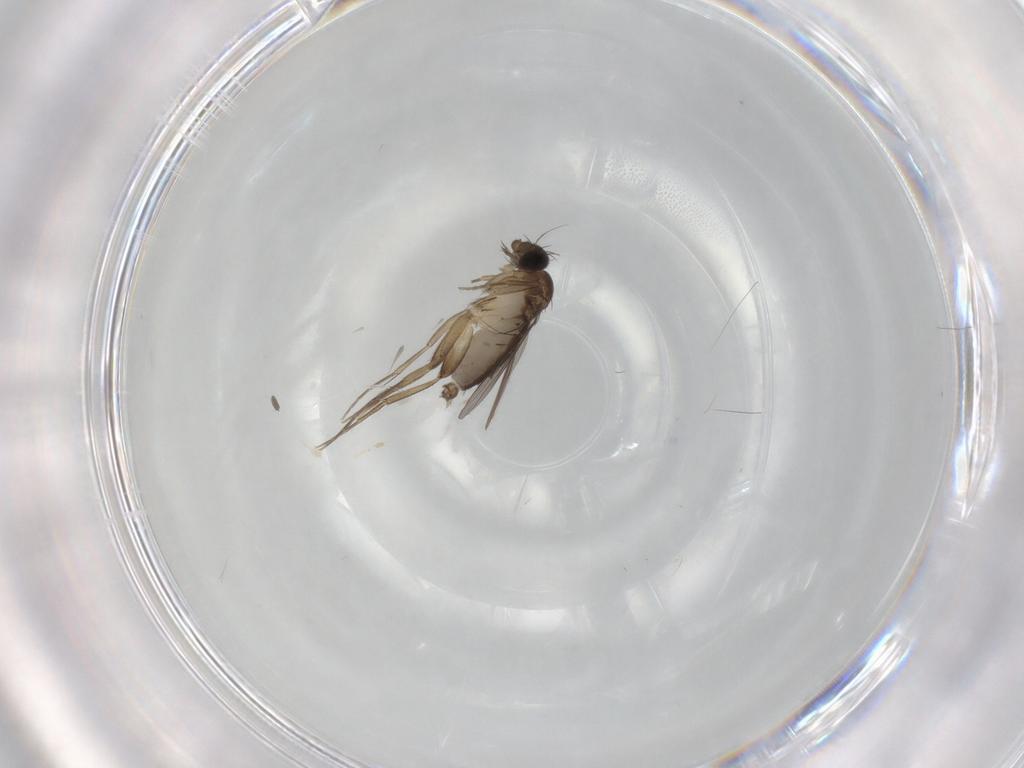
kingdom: Animalia
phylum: Arthropoda
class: Insecta
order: Diptera
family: Phoridae
